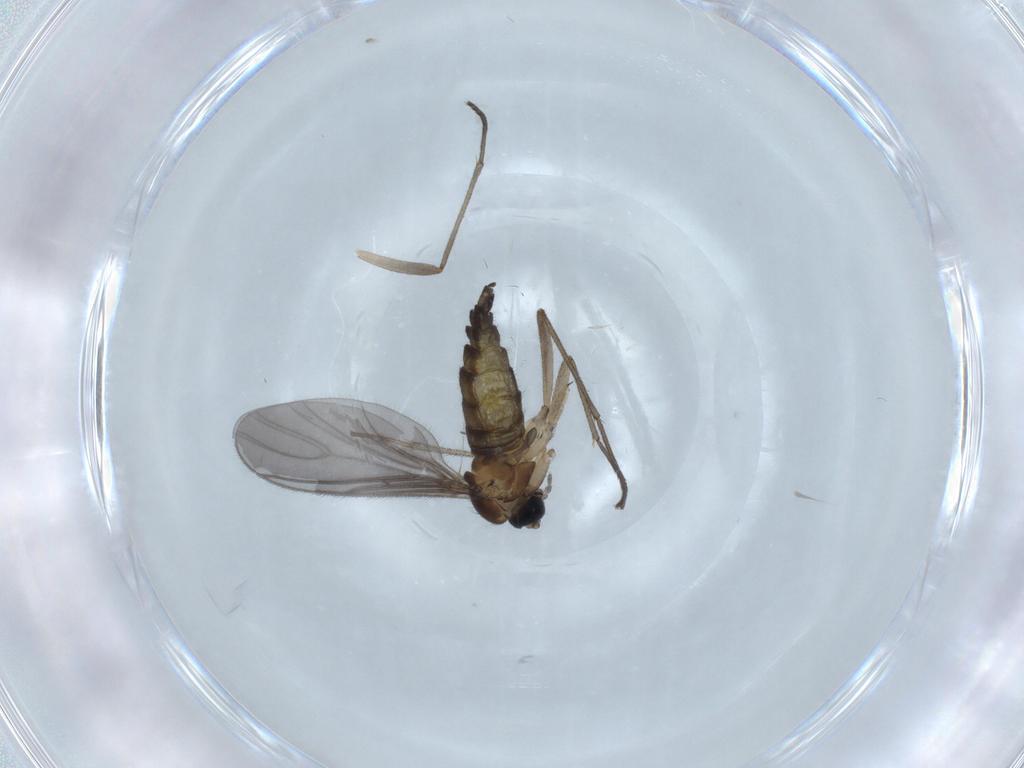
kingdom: Animalia
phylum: Arthropoda
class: Insecta
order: Diptera
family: Sciaridae
